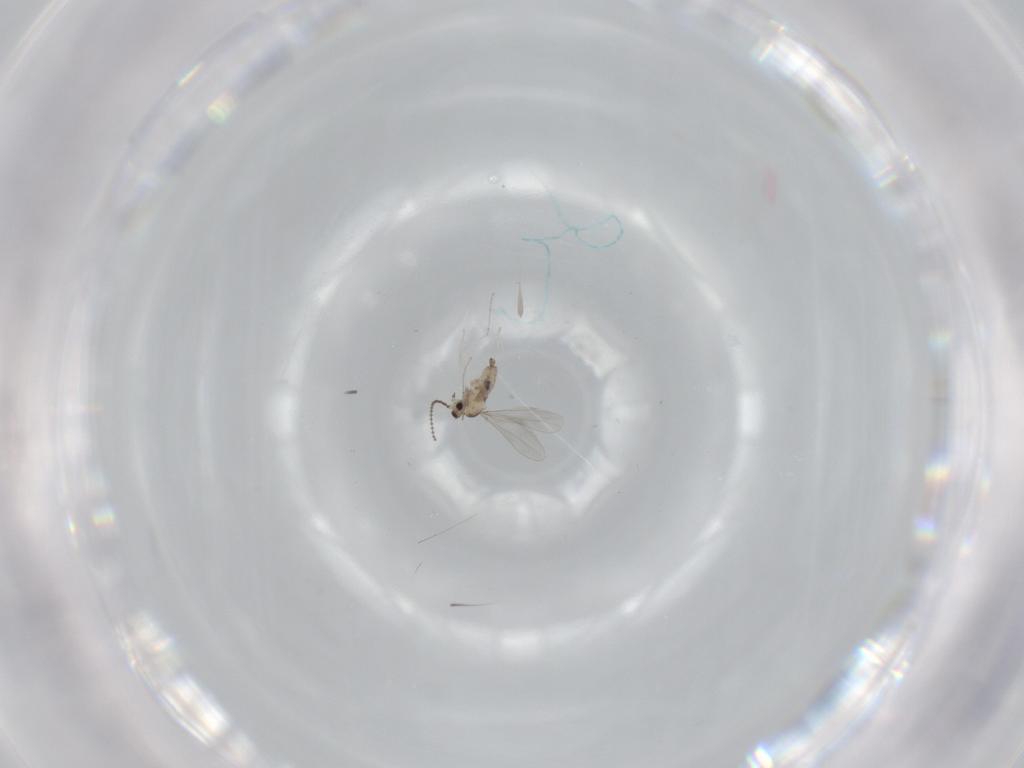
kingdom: Animalia
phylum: Arthropoda
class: Insecta
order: Diptera
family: Cecidomyiidae
